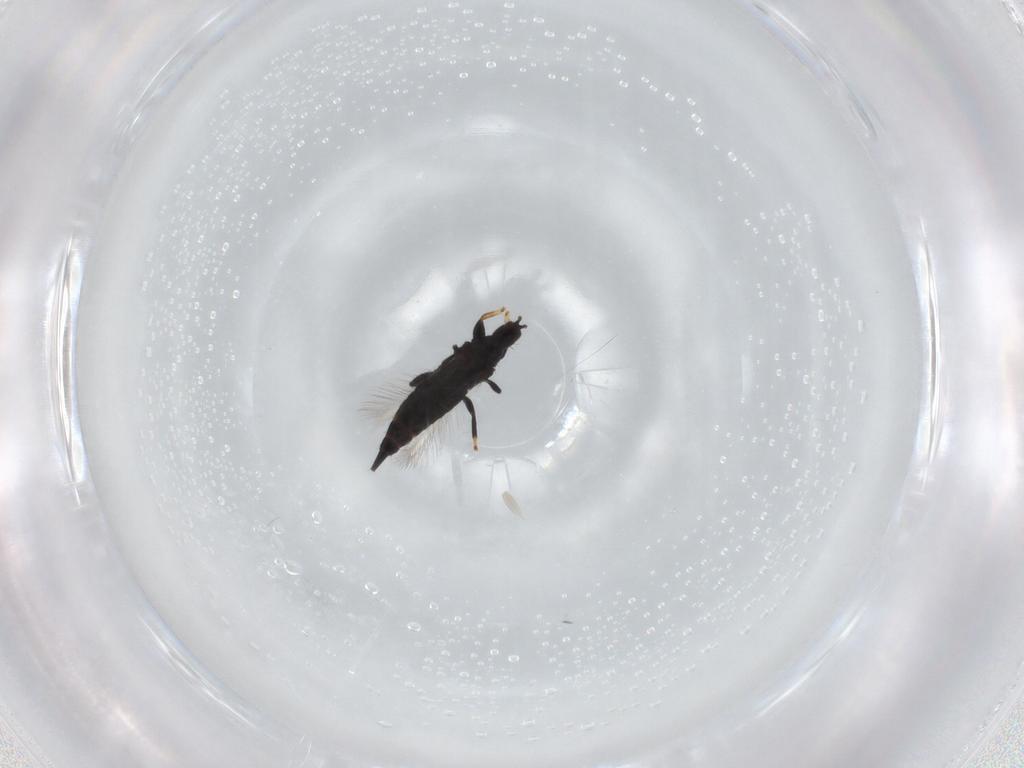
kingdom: Animalia
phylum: Arthropoda
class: Insecta
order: Thysanoptera
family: Phlaeothripidae
